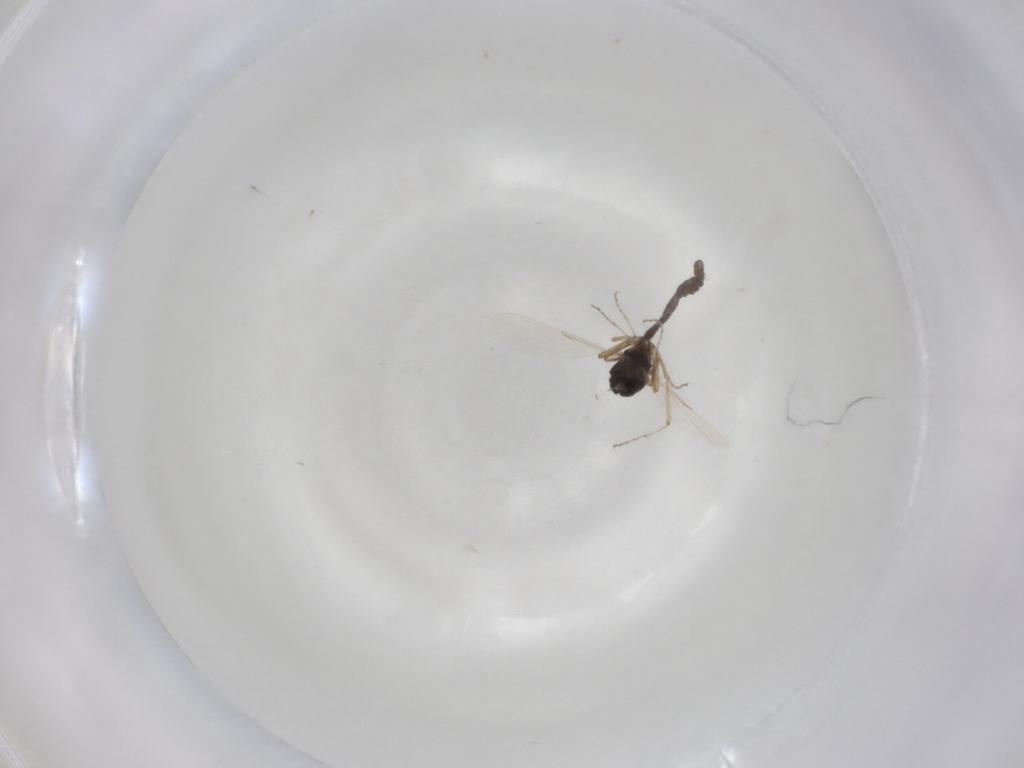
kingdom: Animalia
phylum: Arthropoda
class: Insecta
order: Diptera
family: Ceratopogonidae
